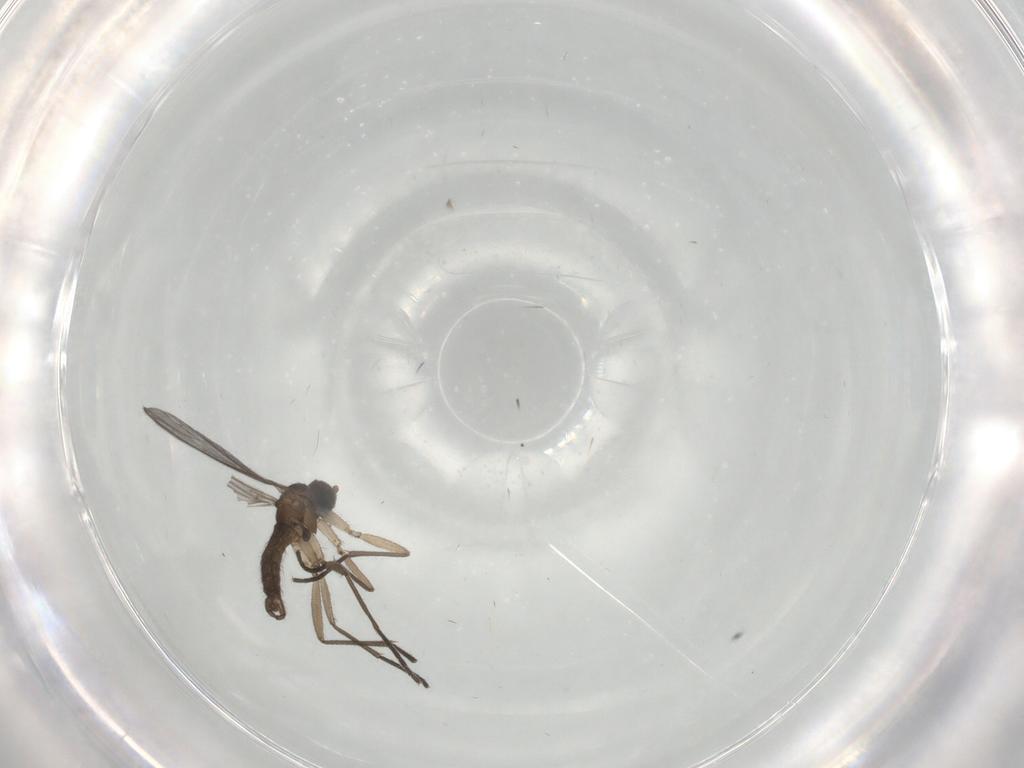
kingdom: Animalia
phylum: Arthropoda
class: Insecta
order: Diptera
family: Sciaridae
